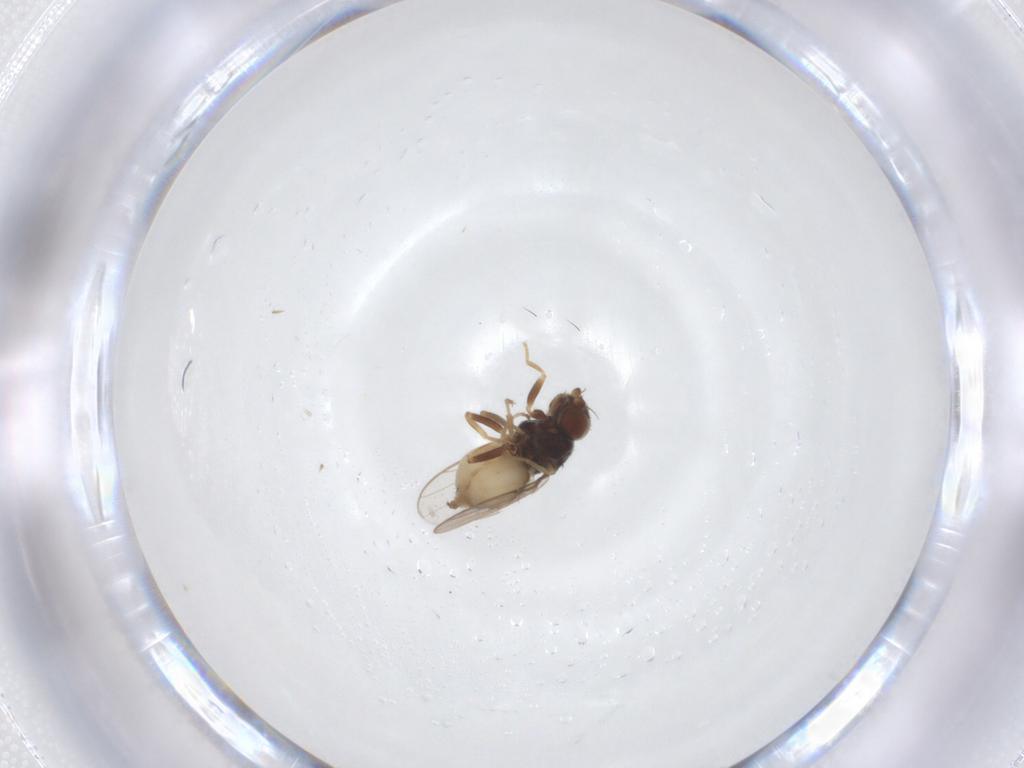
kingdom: Animalia
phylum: Arthropoda
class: Insecta
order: Diptera
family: Chloropidae
